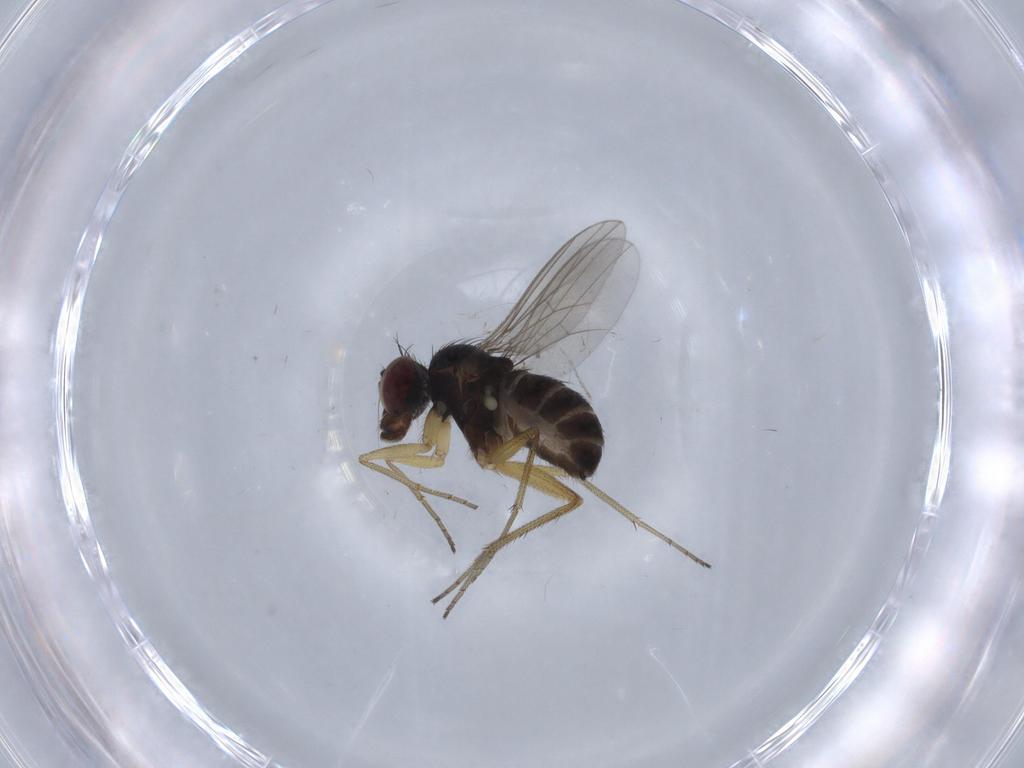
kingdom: Animalia
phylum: Arthropoda
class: Insecta
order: Diptera
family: Dolichopodidae
